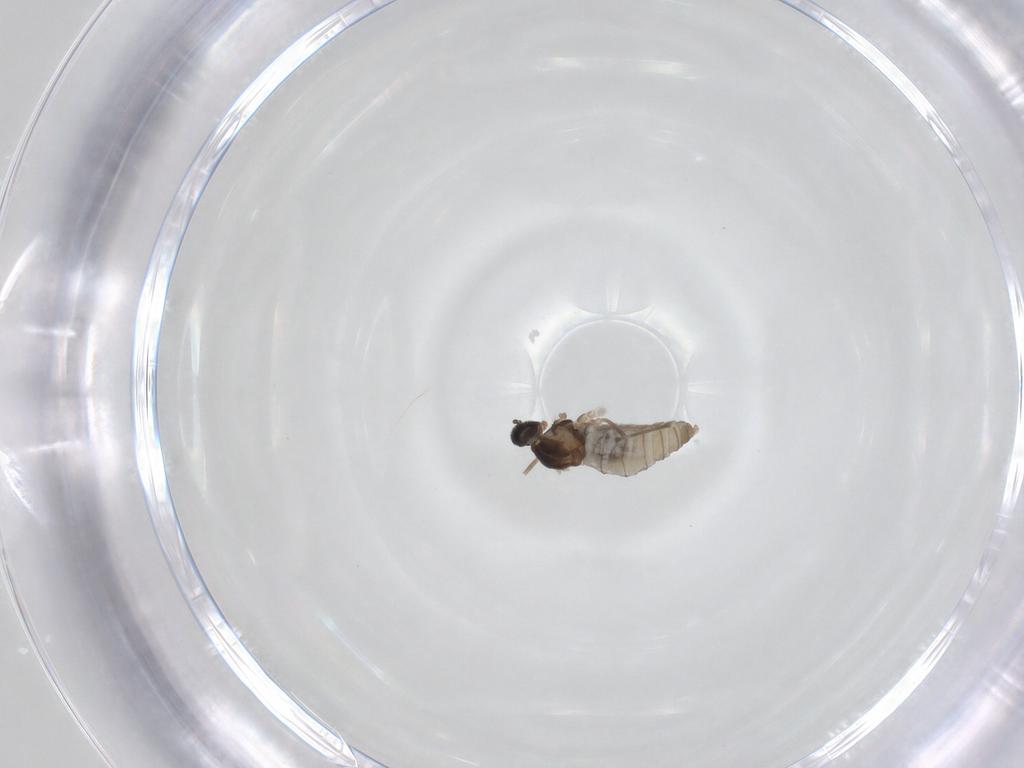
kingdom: Animalia
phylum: Arthropoda
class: Insecta
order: Diptera
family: Cecidomyiidae
